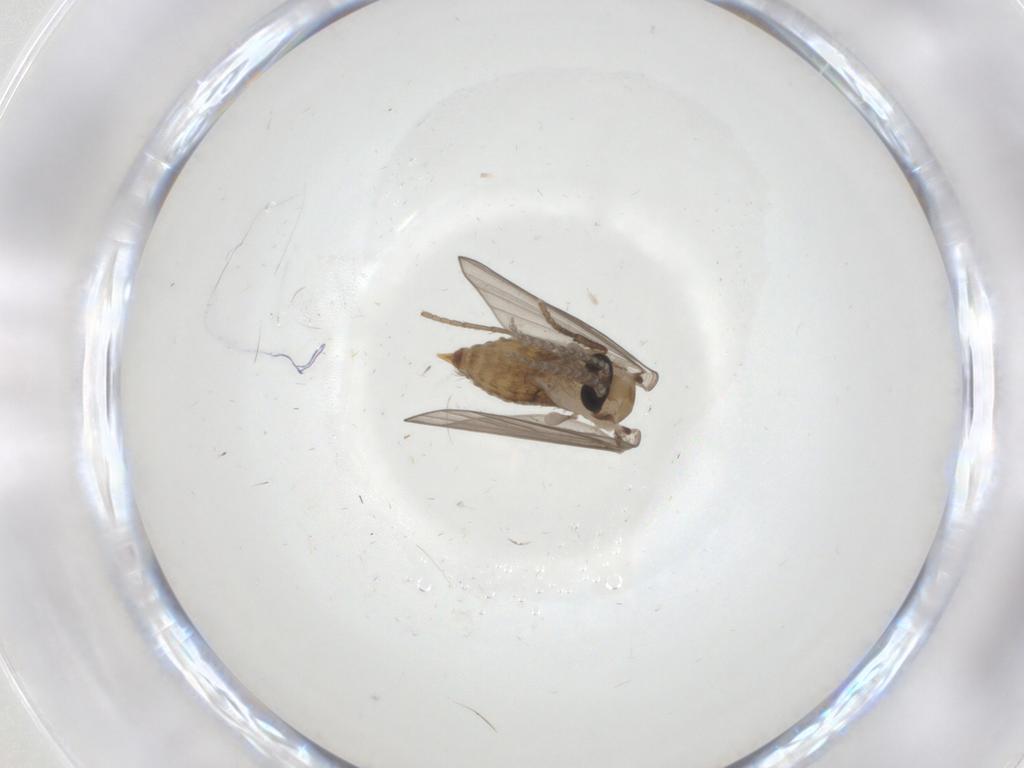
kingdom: Animalia
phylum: Arthropoda
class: Insecta
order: Diptera
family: Psychodidae
